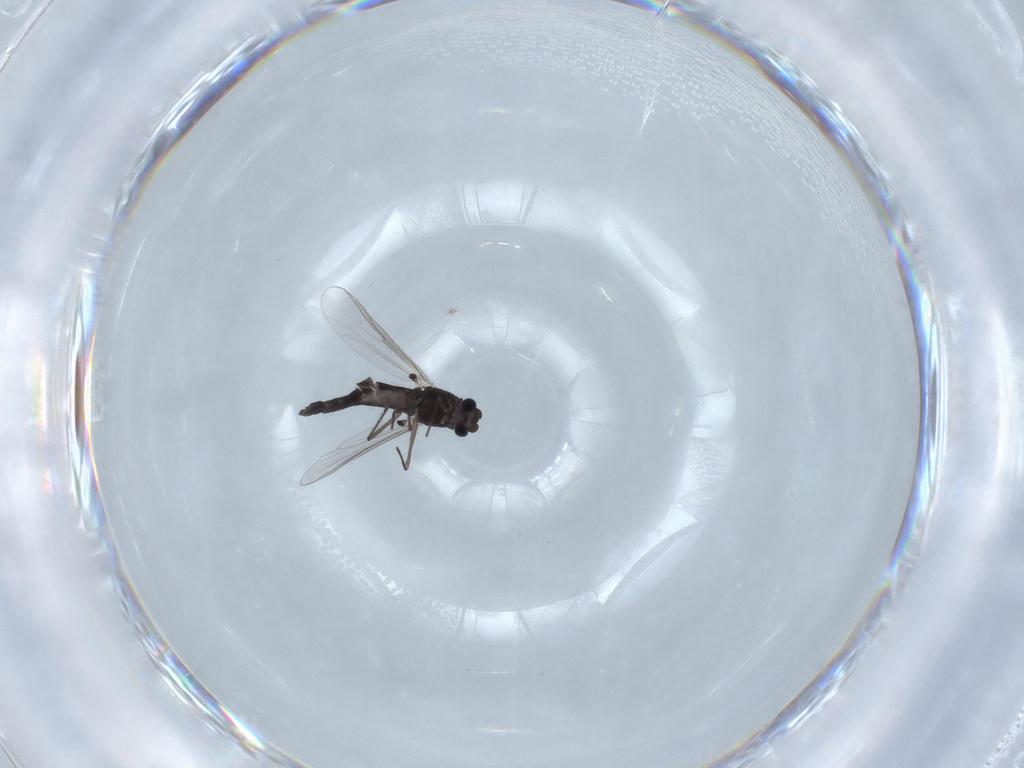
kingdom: Animalia
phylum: Arthropoda
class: Insecta
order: Diptera
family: Chironomidae
